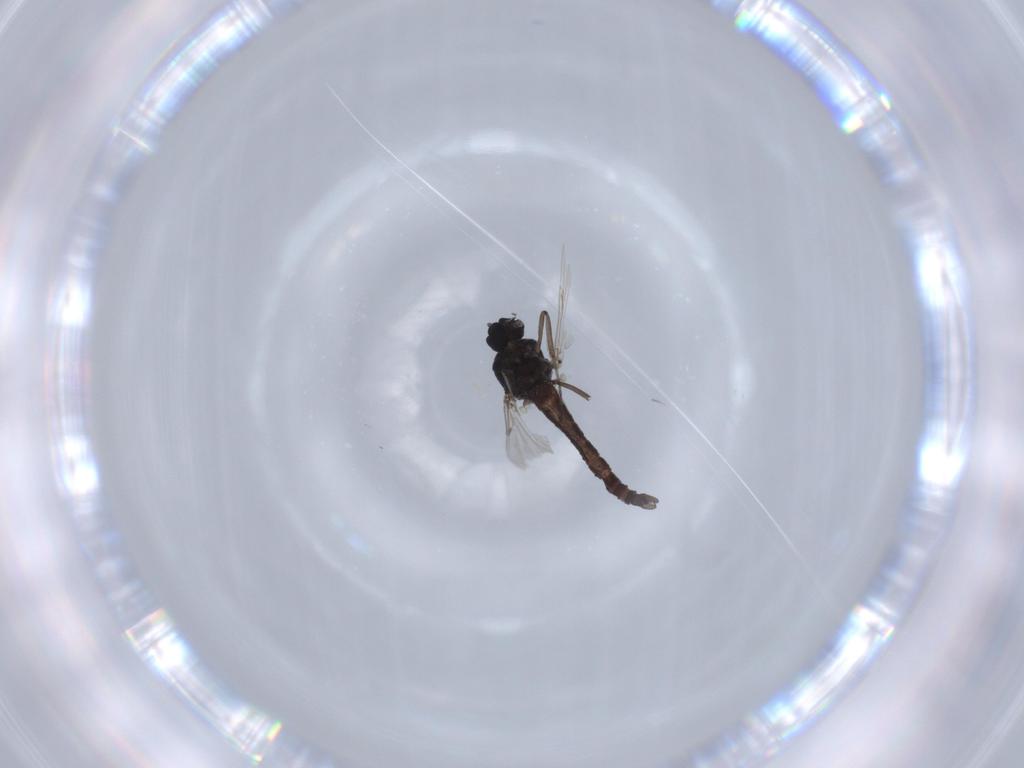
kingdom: Animalia
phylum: Arthropoda
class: Insecta
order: Diptera
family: Ceratopogonidae
